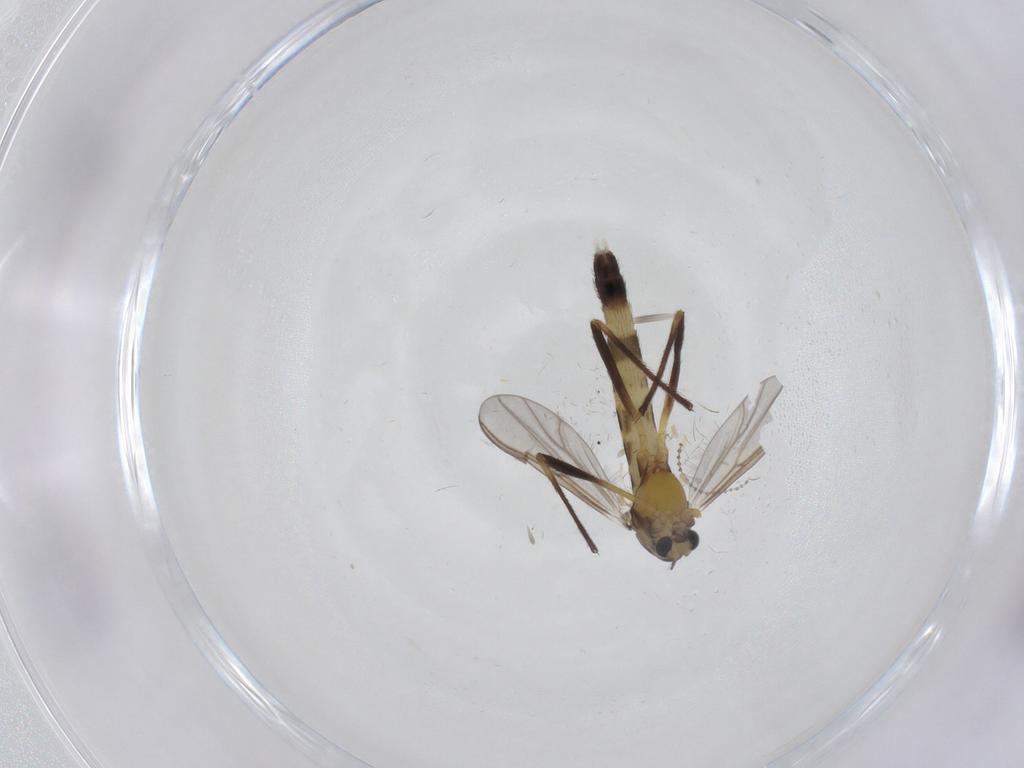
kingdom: Animalia
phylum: Arthropoda
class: Insecta
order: Diptera
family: Chironomidae
